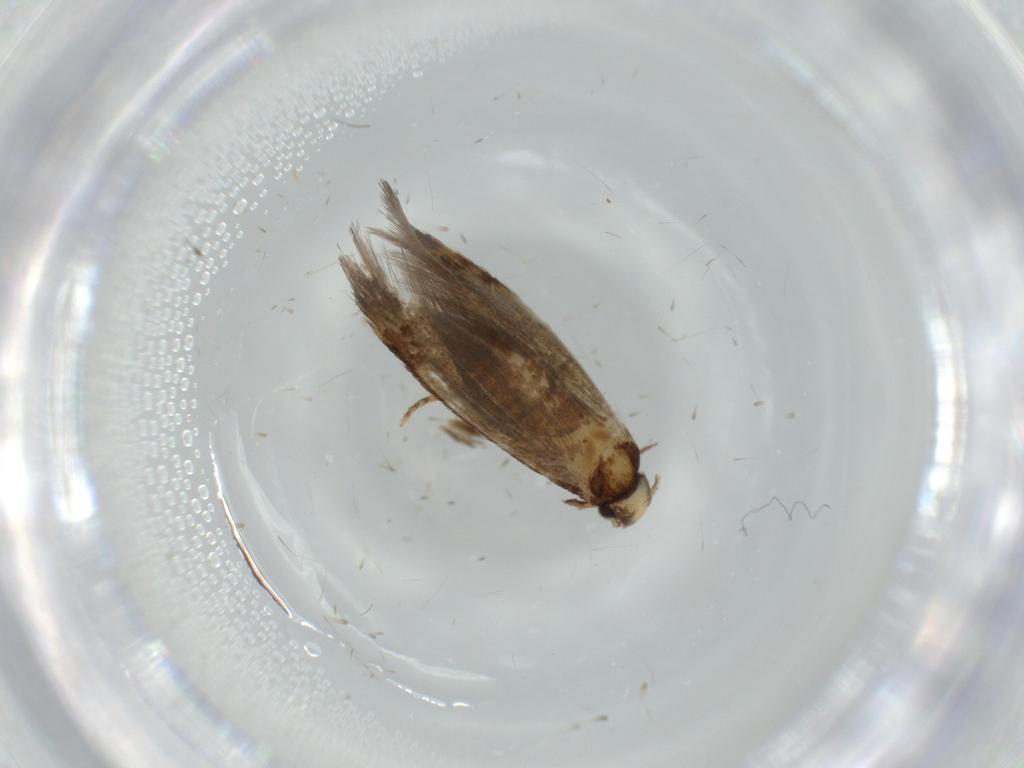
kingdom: Animalia
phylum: Arthropoda
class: Insecta
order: Lepidoptera
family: Tineidae
